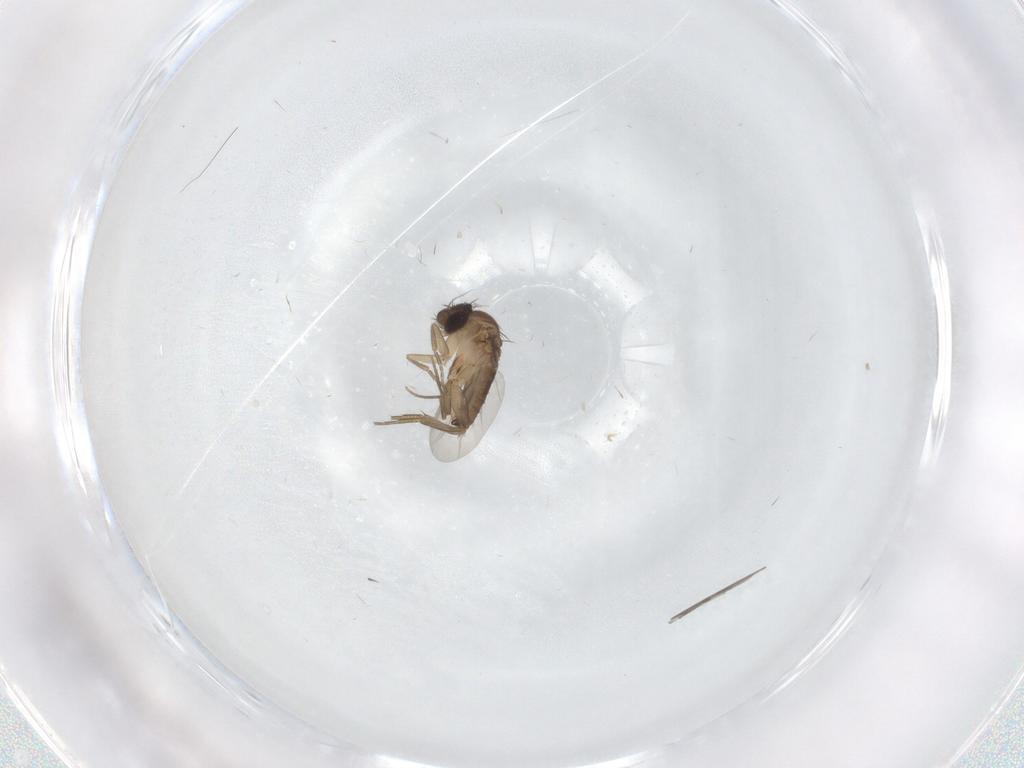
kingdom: Animalia
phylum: Arthropoda
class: Insecta
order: Diptera
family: Phoridae
